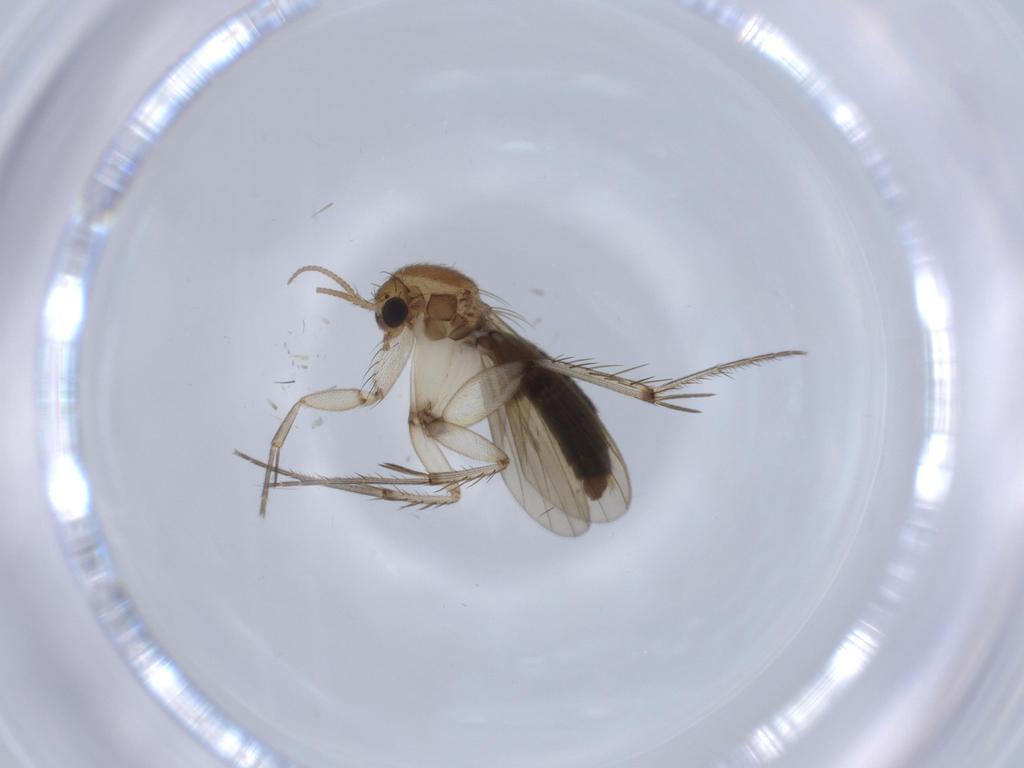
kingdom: Animalia
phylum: Arthropoda
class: Insecta
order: Diptera
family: Mycetophilidae
